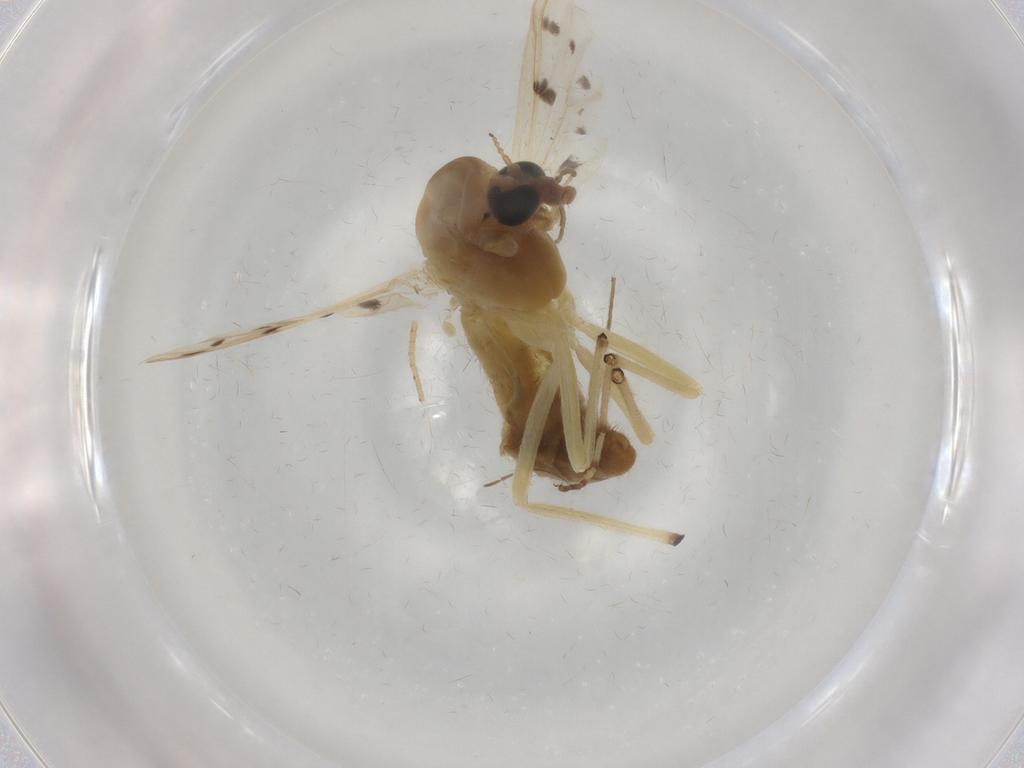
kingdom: Animalia
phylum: Arthropoda
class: Insecta
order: Diptera
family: Chironomidae
